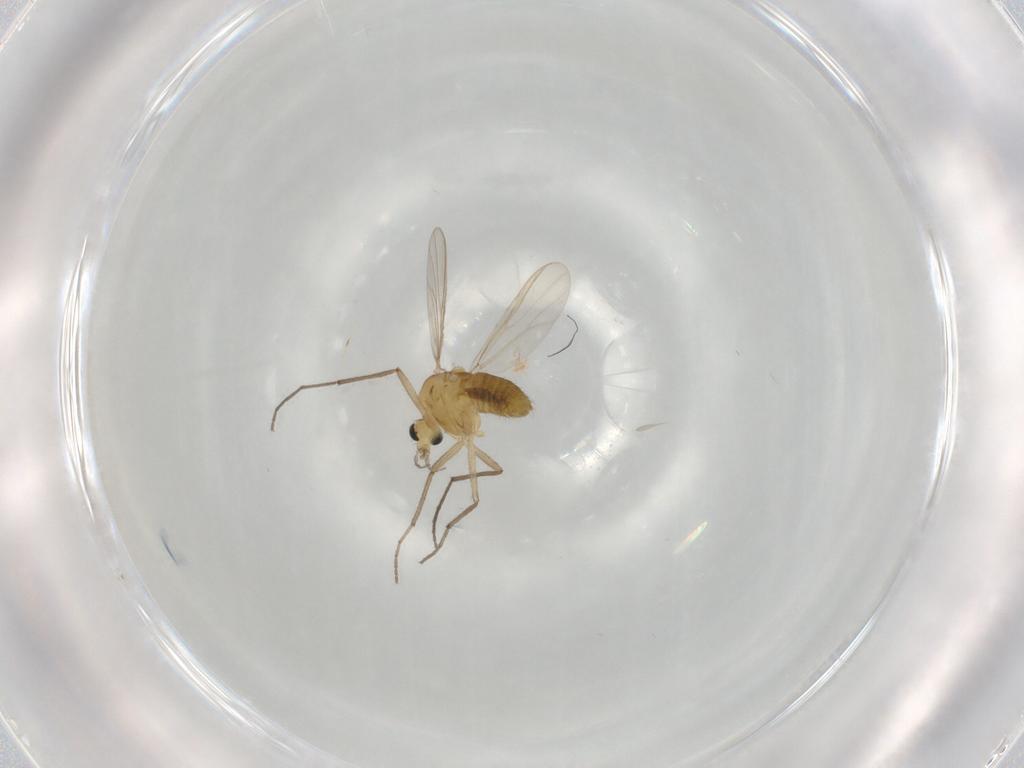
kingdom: Animalia
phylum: Arthropoda
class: Insecta
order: Diptera
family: Chironomidae
